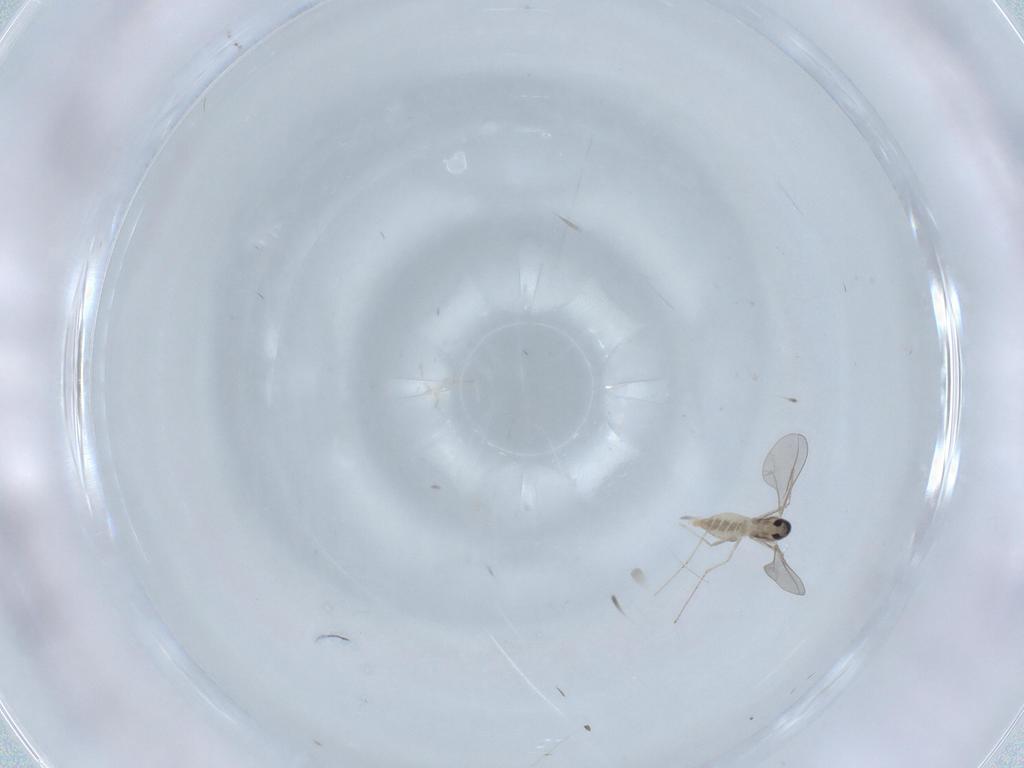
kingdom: Animalia
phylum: Arthropoda
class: Insecta
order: Diptera
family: Cecidomyiidae
